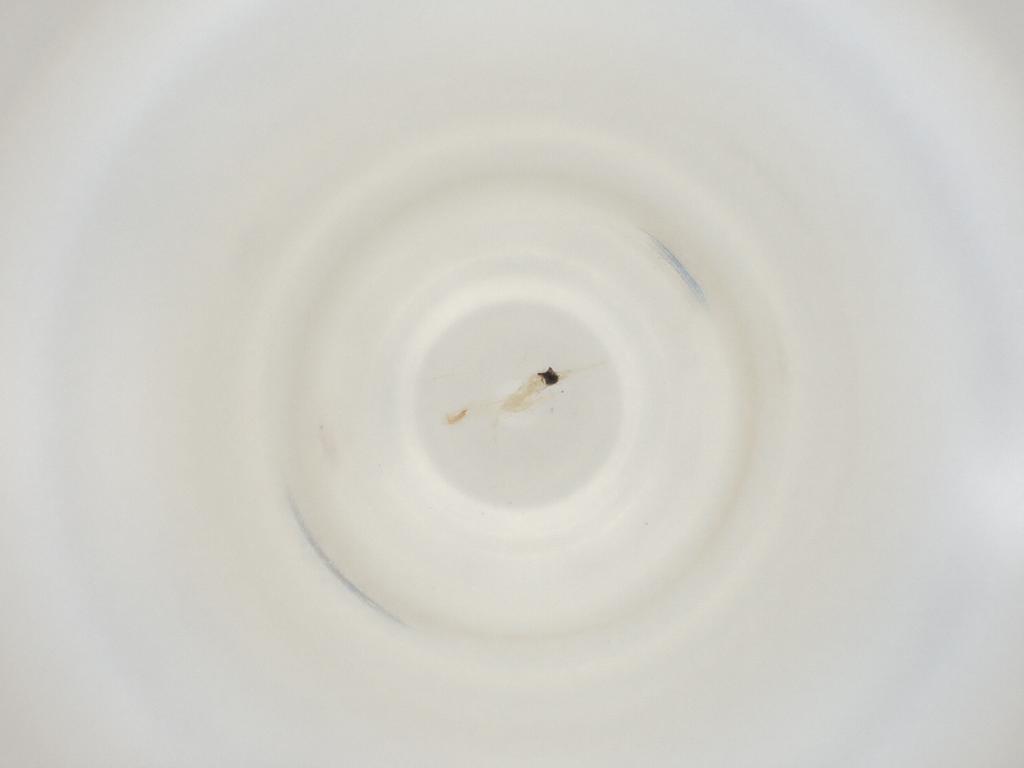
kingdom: Animalia
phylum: Arthropoda
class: Insecta
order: Diptera
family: Cecidomyiidae
